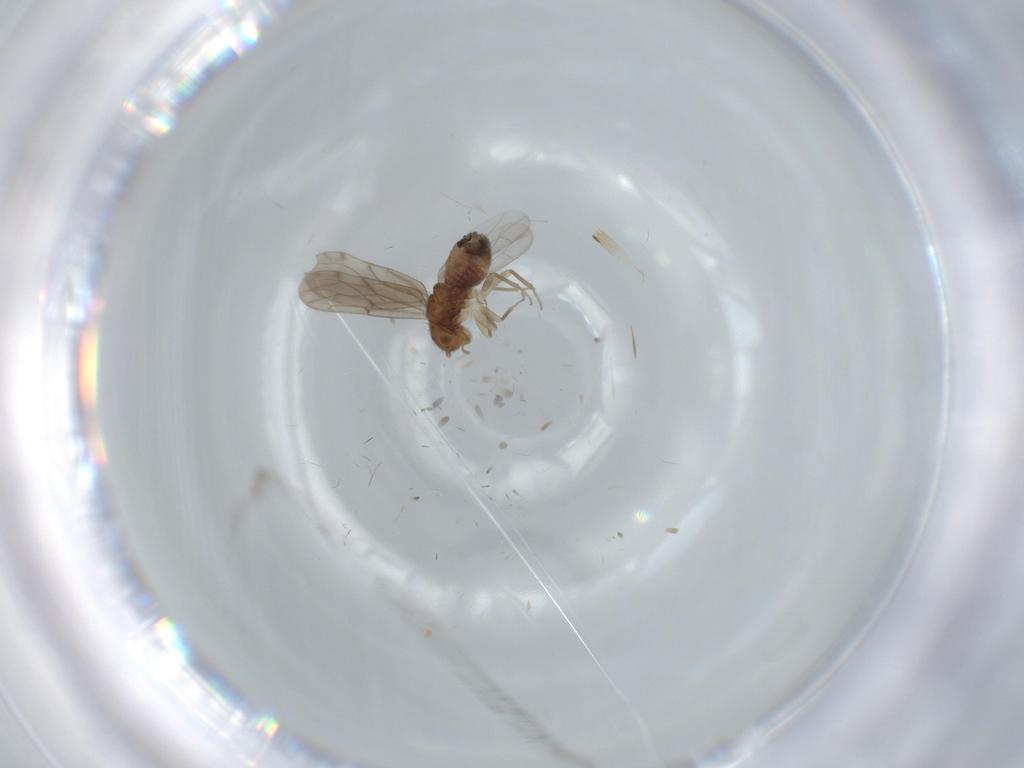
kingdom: Animalia
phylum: Arthropoda
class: Insecta
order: Psocodea
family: Ectopsocidae
